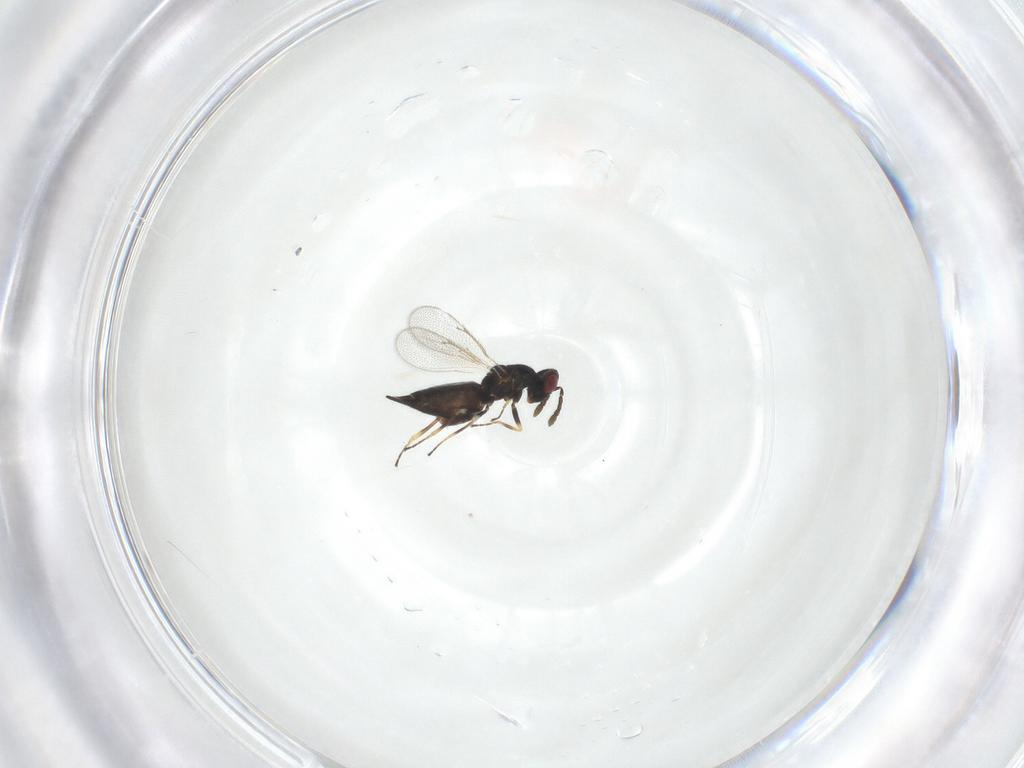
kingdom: Animalia
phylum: Arthropoda
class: Insecta
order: Hymenoptera
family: Eulophidae
